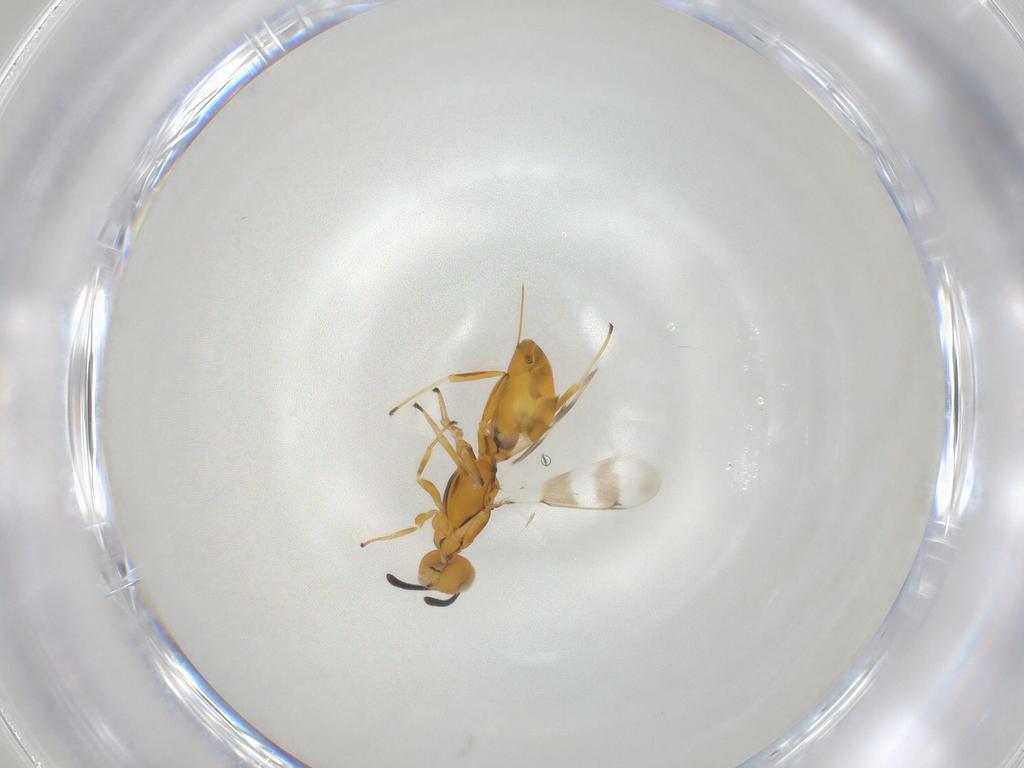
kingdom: Animalia
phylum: Arthropoda
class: Insecta
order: Hymenoptera
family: Eupelmidae
